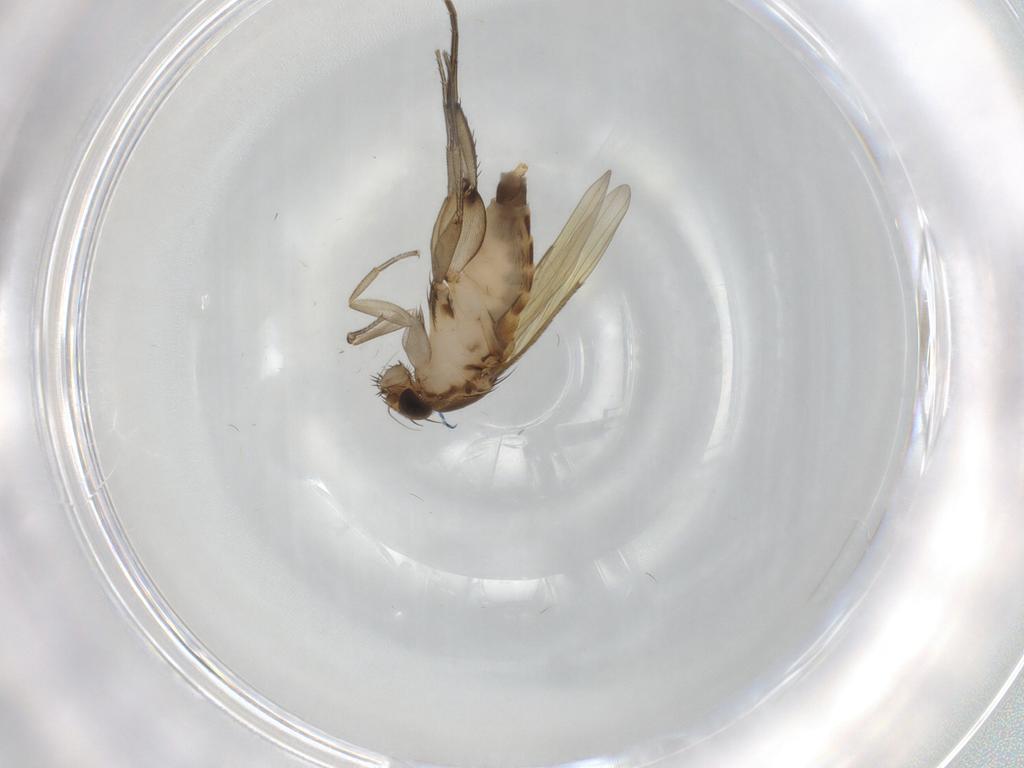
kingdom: Animalia
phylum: Arthropoda
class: Insecta
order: Diptera
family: Phoridae
